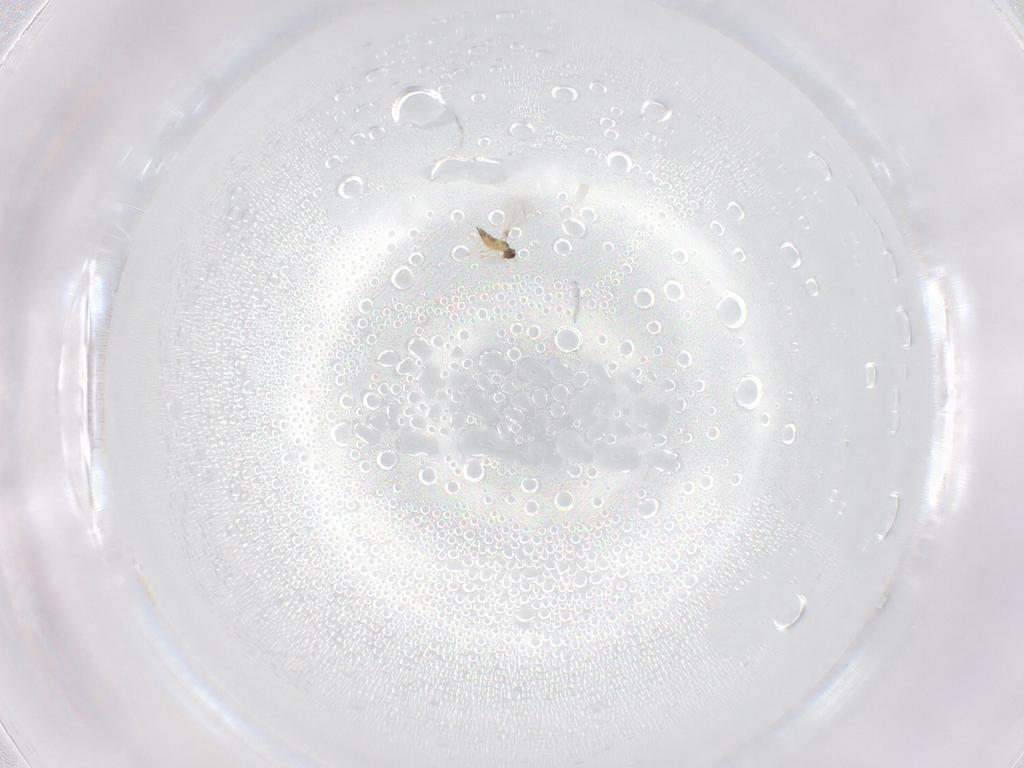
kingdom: Animalia
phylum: Arthropoda
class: Insecta
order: Hymenoptera
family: Mymaridae
